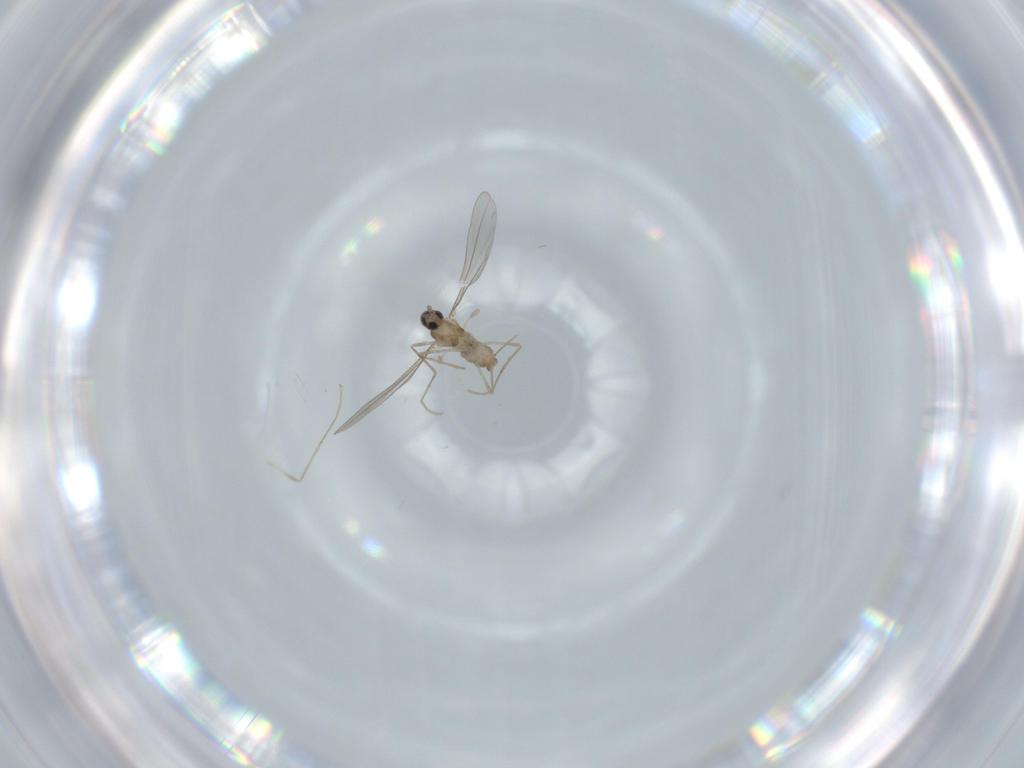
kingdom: Animalia
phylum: Arthropoda
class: Insecta
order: Diptera
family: Cecidomyiidae
